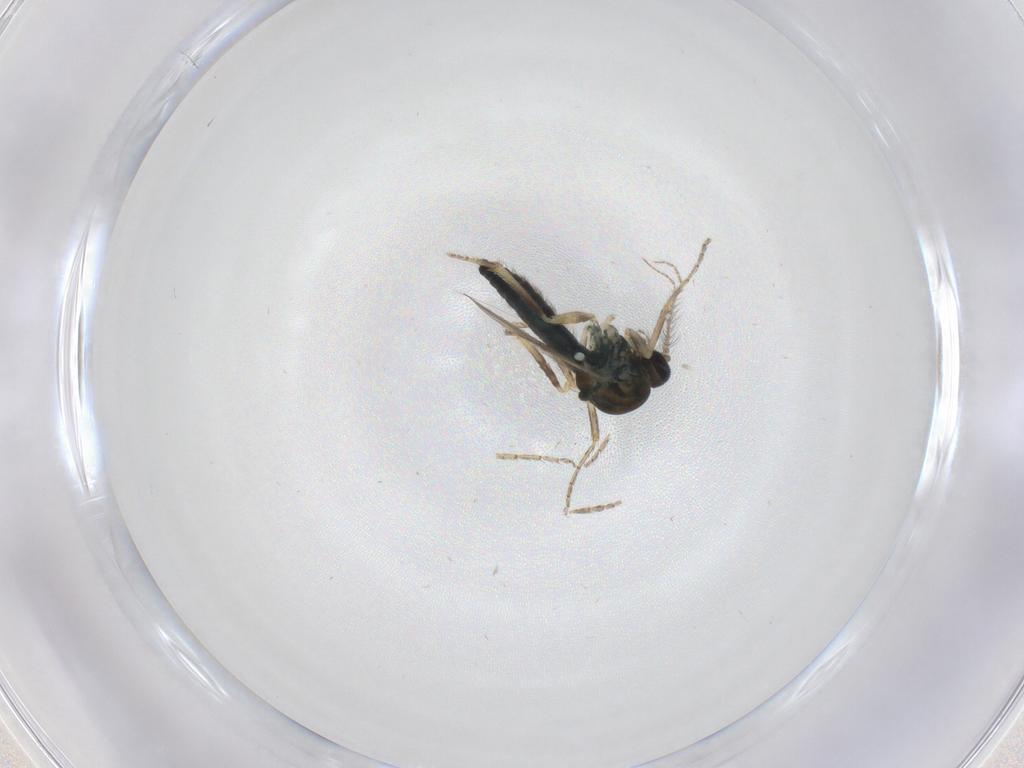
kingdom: Animalia
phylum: Arthropoda
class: Insecta
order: Diptera
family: Ceratopogonidae
